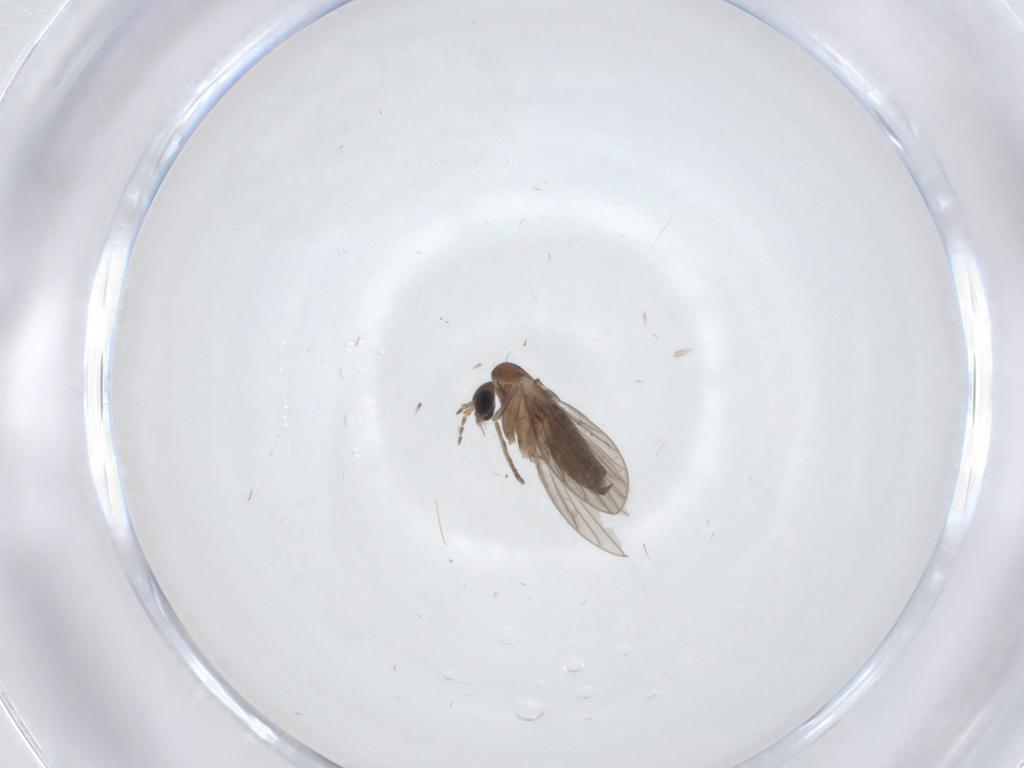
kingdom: Animalia
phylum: Arthropoda
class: Insecta
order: Diptera
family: Psychodidae
